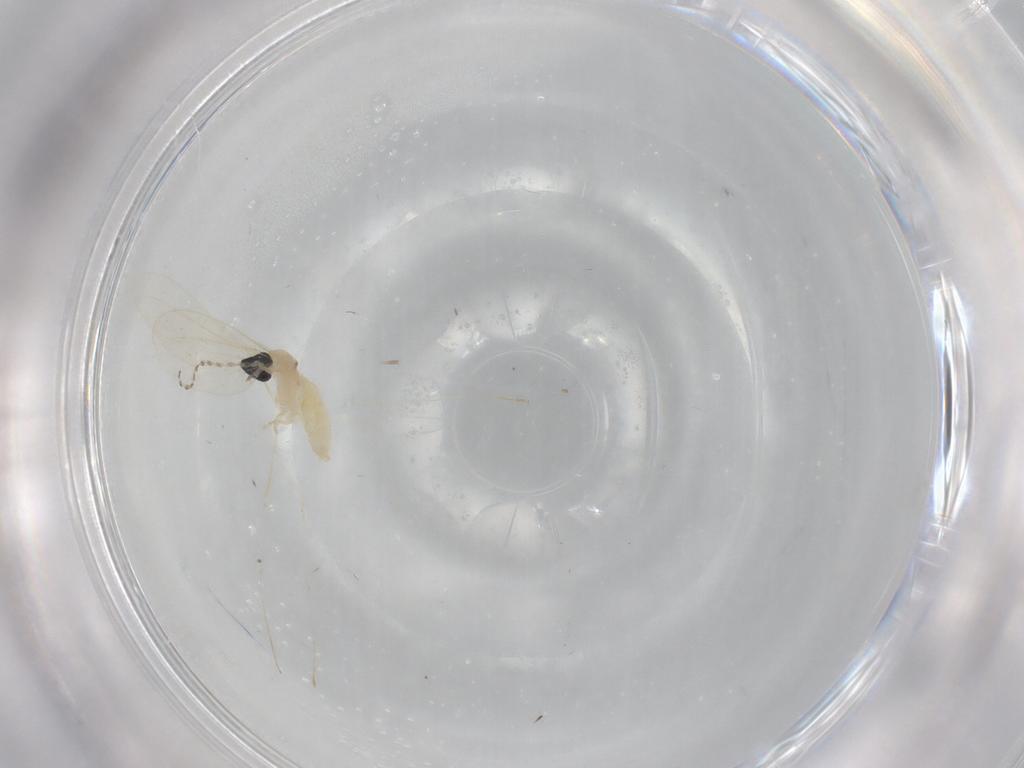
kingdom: Animalia
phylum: Arthropoda
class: Insecta
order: Diptera
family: Cecidomyiidae
